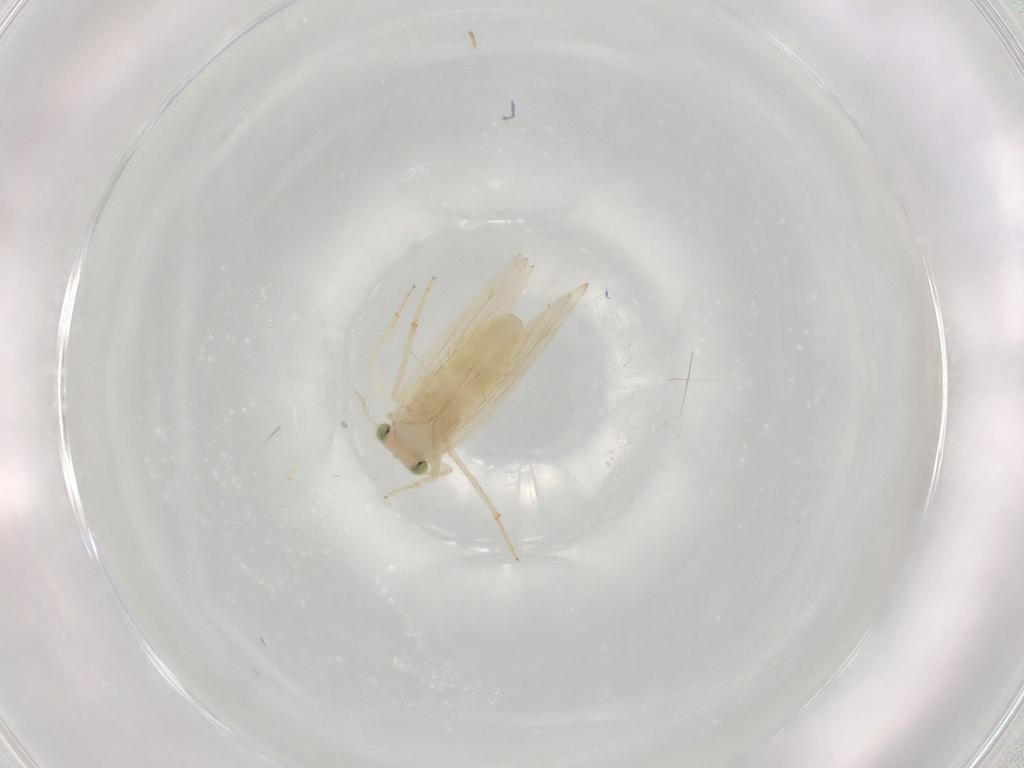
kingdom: Animalia
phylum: Arthropoda
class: Insecta
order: Psocodea
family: Lepidopsocidae
